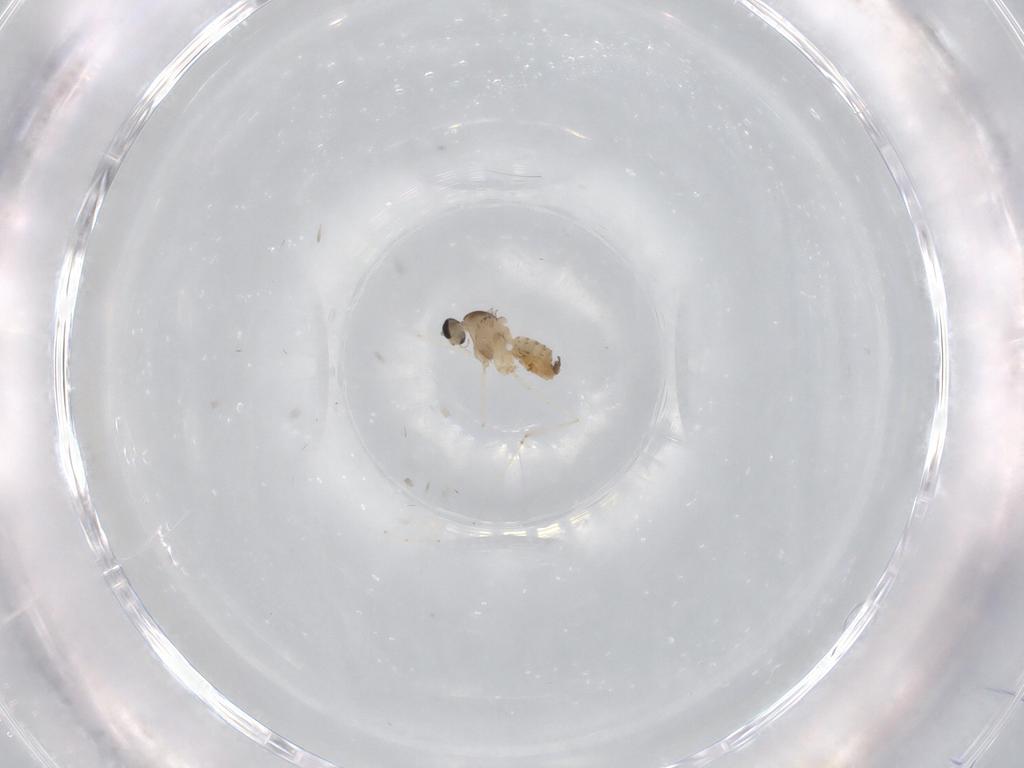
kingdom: Animalia
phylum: Arthropoda
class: Insecta
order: Diptera
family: Cecidomyiidae
